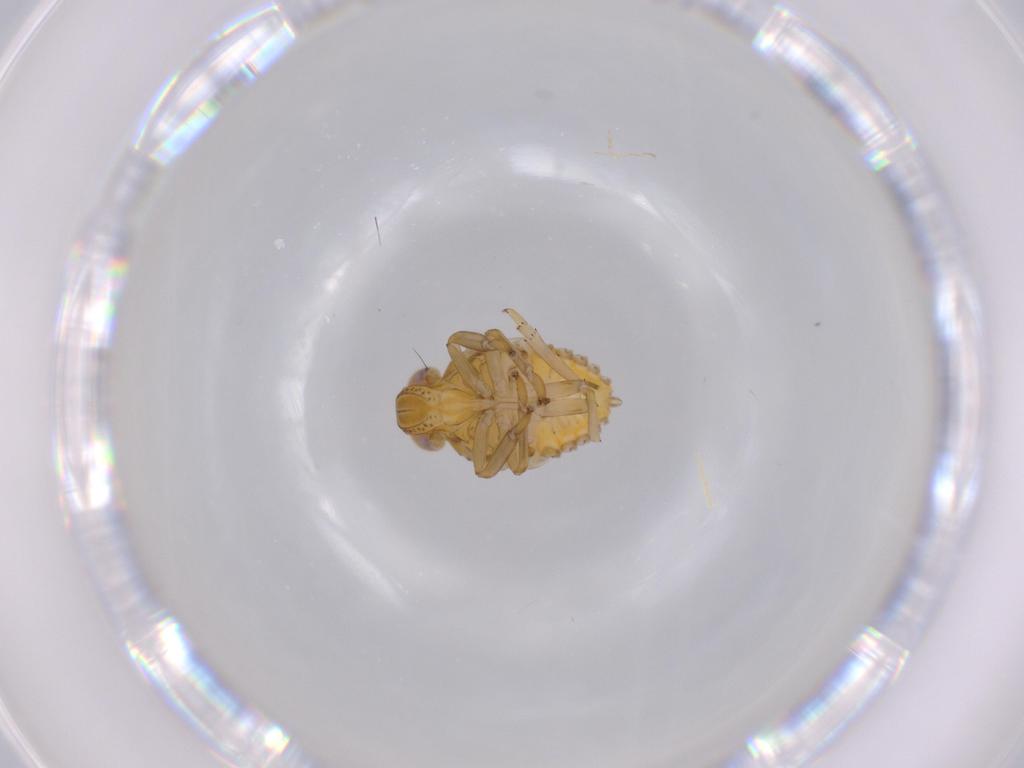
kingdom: Animalia
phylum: Arthropoda
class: Insecta
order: Hemiptera
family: Issidae
